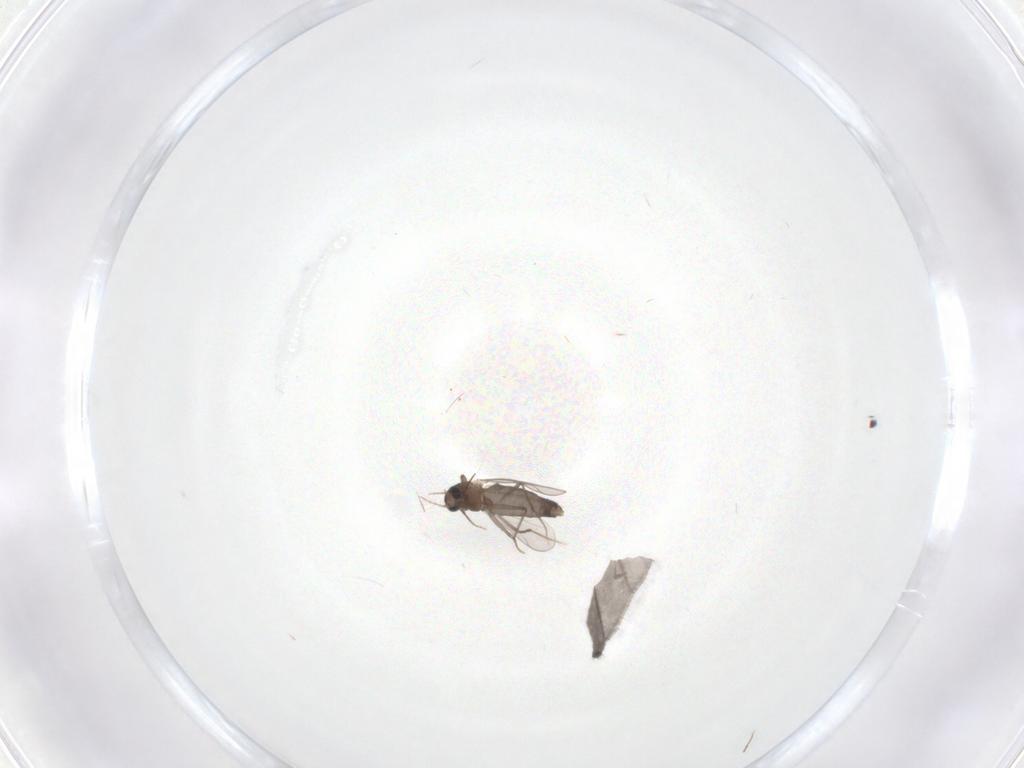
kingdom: Animalia
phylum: Arthropoda
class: Insecta
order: Diptera
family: Chironomidae
